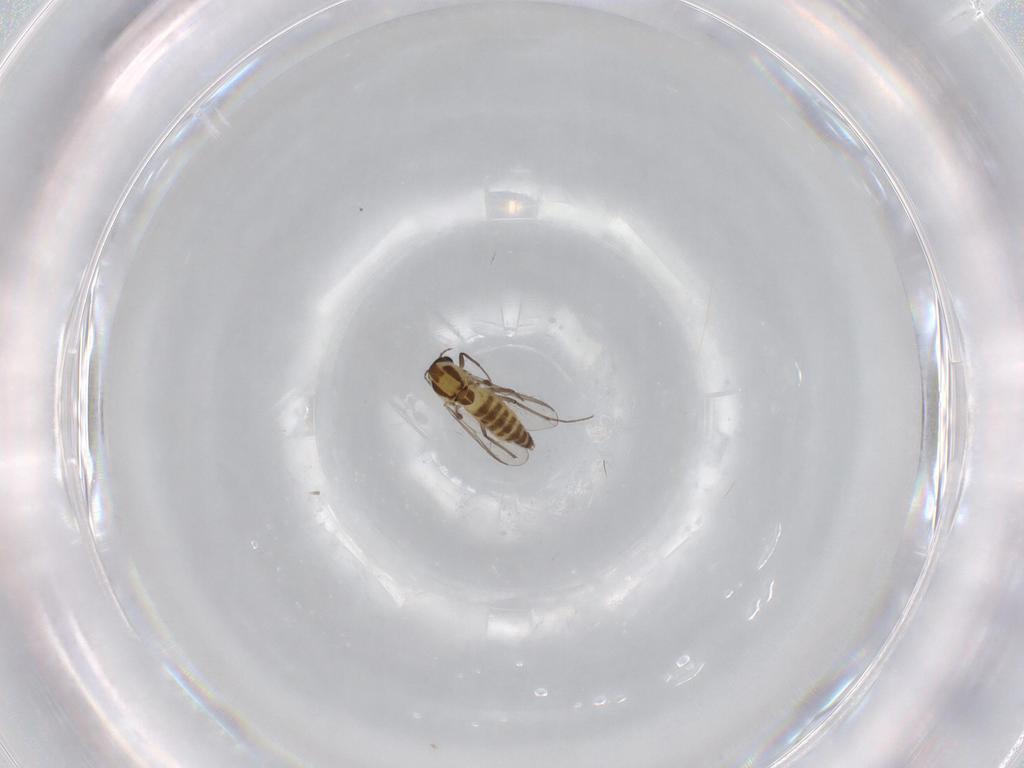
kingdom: Animalia
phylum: Arthropoda
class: Insecta
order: Diptera
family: Chironomidae
